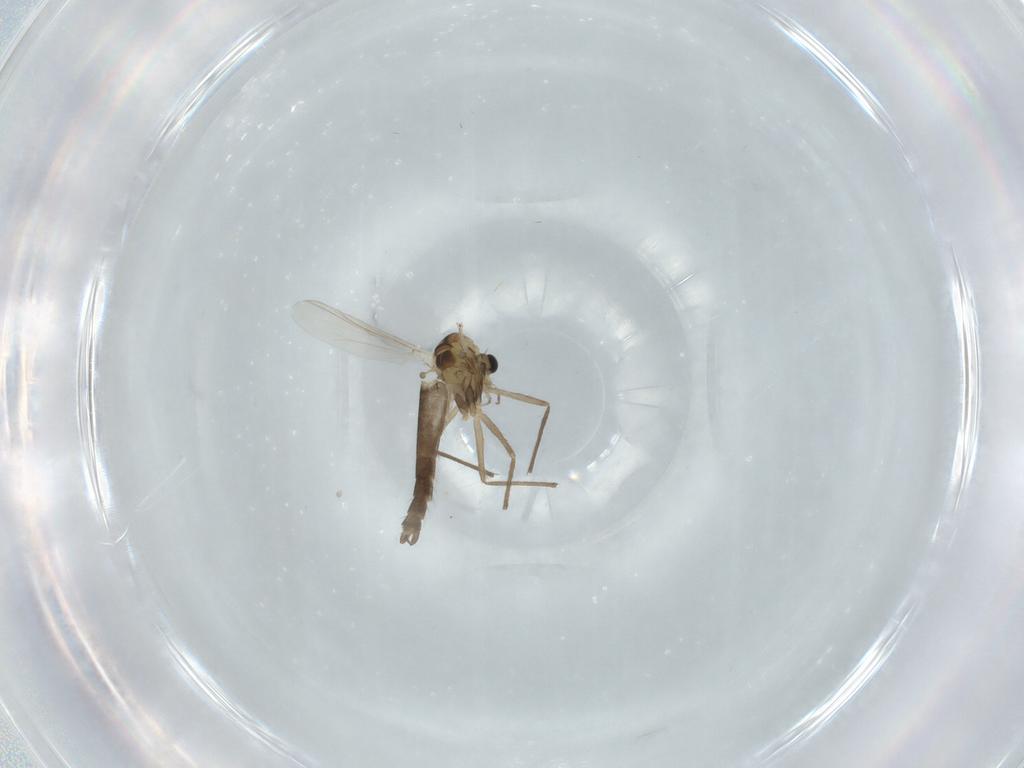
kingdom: Animalia
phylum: Arthropoda
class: Insecta
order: Diptera
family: Chironomidae
